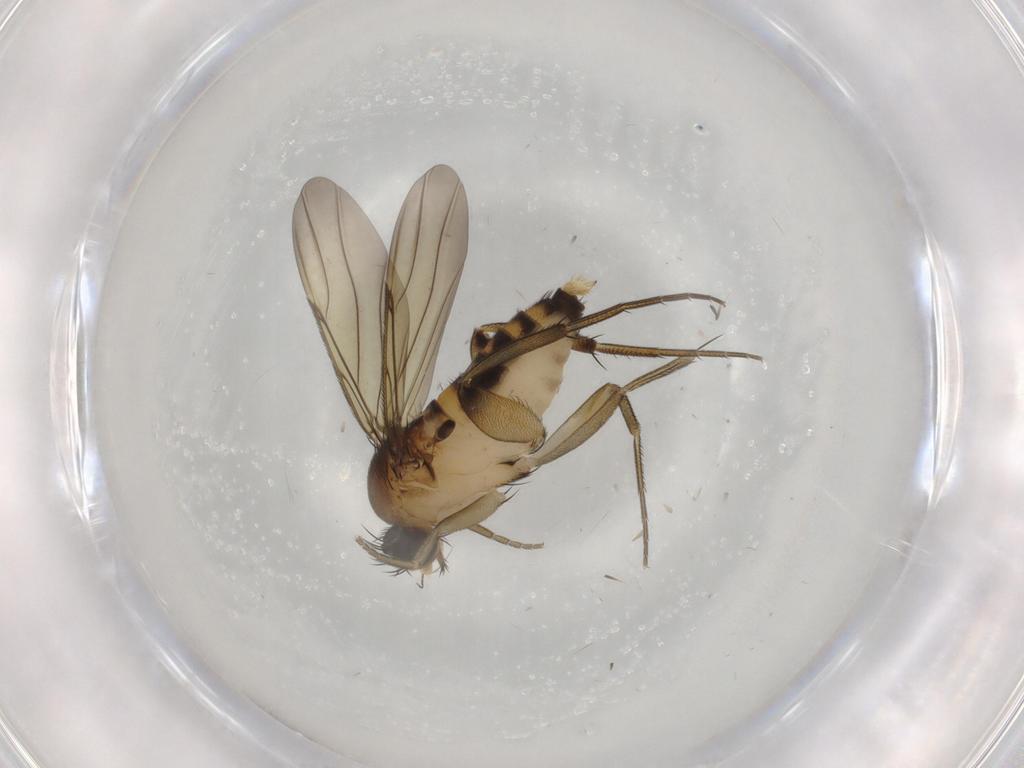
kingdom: Animalia
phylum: Arthropoda
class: Insecta
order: Diptera
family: Phoridae
